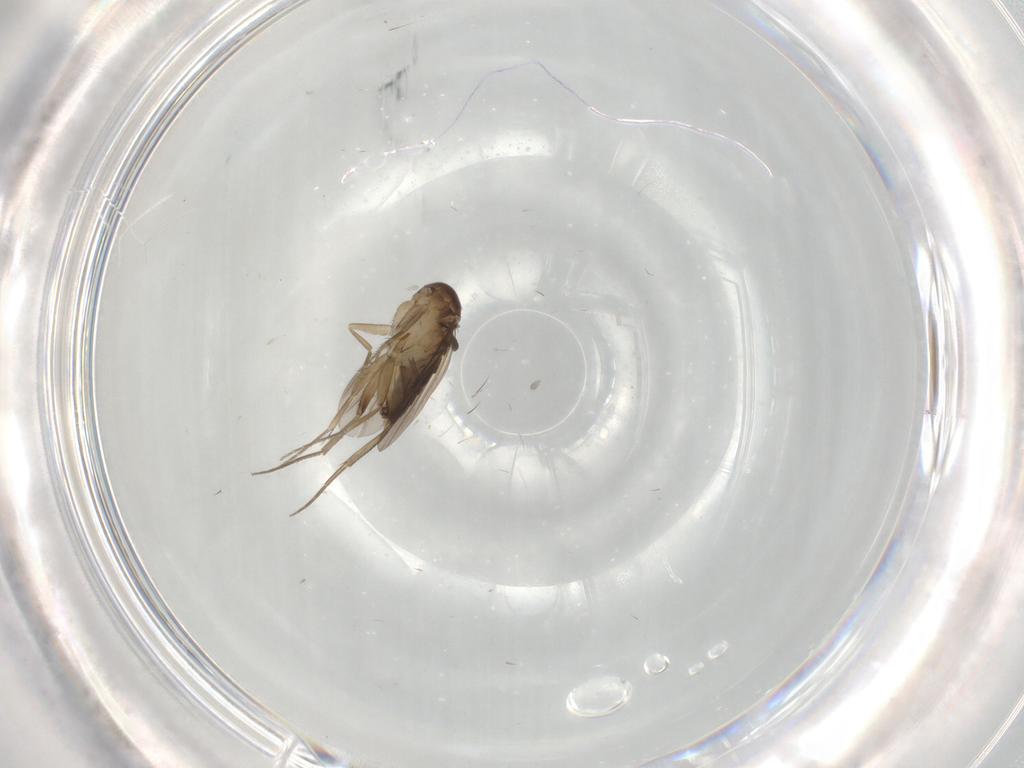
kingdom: Animalia
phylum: Arthropoda
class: Insecta
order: Diptera
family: Phoridae
